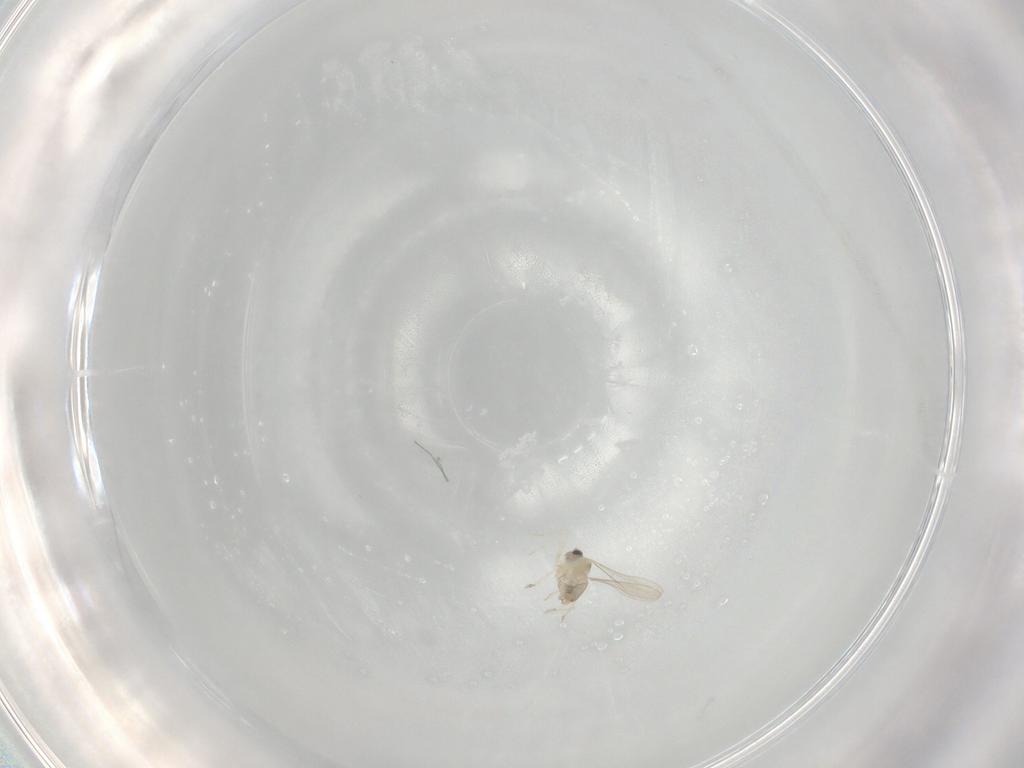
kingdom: Animalia
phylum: Arthropoda
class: Insecta
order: Diptera
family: Cecidomyiidae
